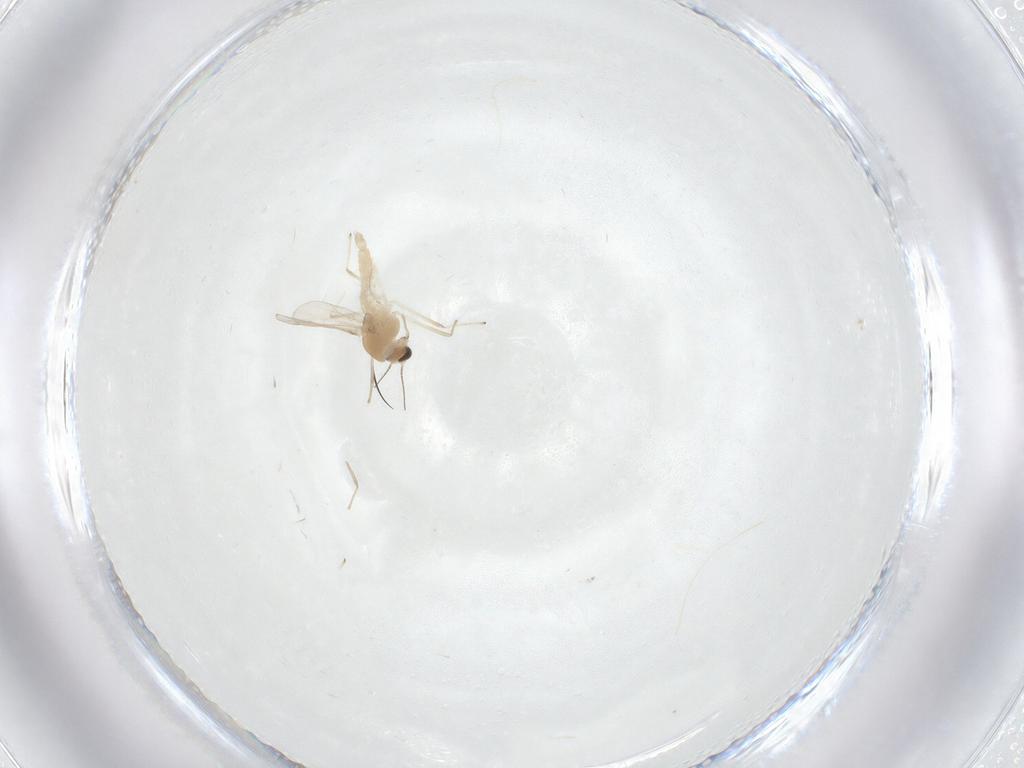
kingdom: Animalia
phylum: Arthropoda
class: Insecta
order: Diptera
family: Chironomidae
